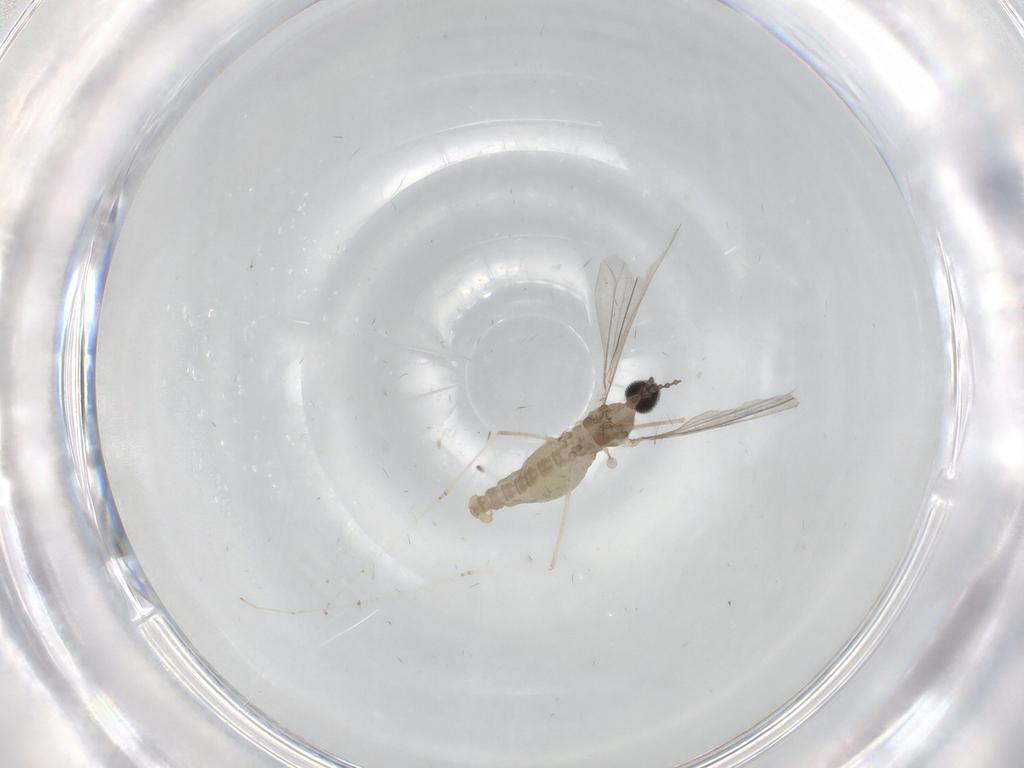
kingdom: Animalia
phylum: Arthropoda
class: Insecta
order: Diptera
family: Cecidomyiidae
